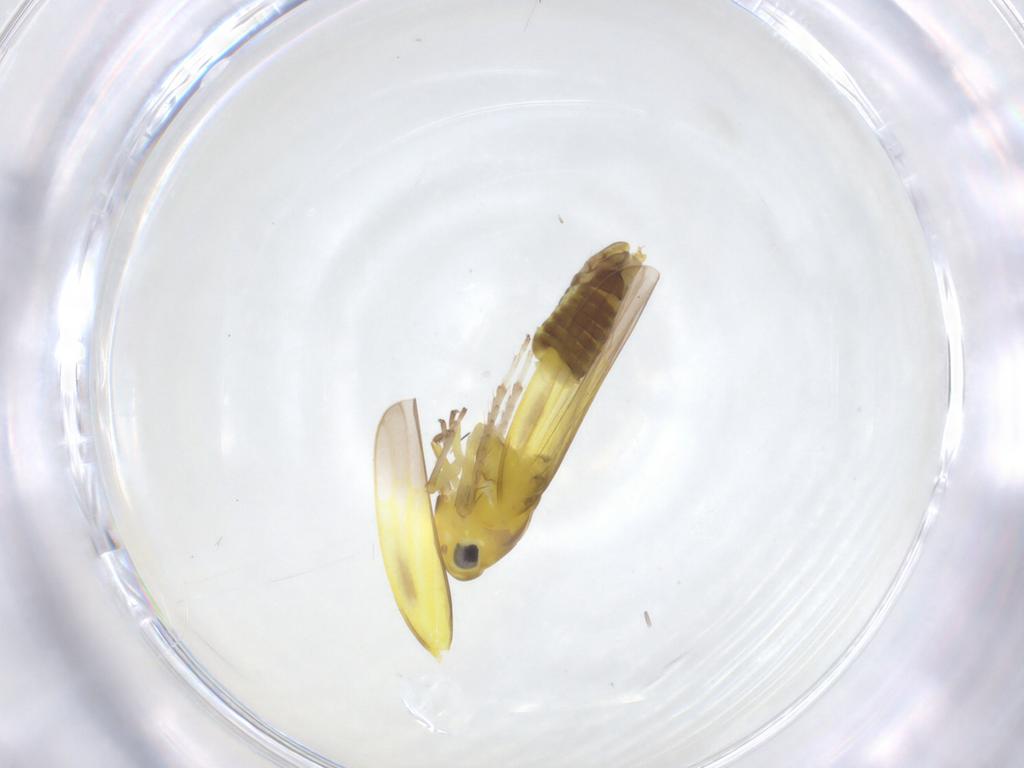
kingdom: Animalia
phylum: Arthropoda
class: Insecta
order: Hemiptera
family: Cicadellidae
